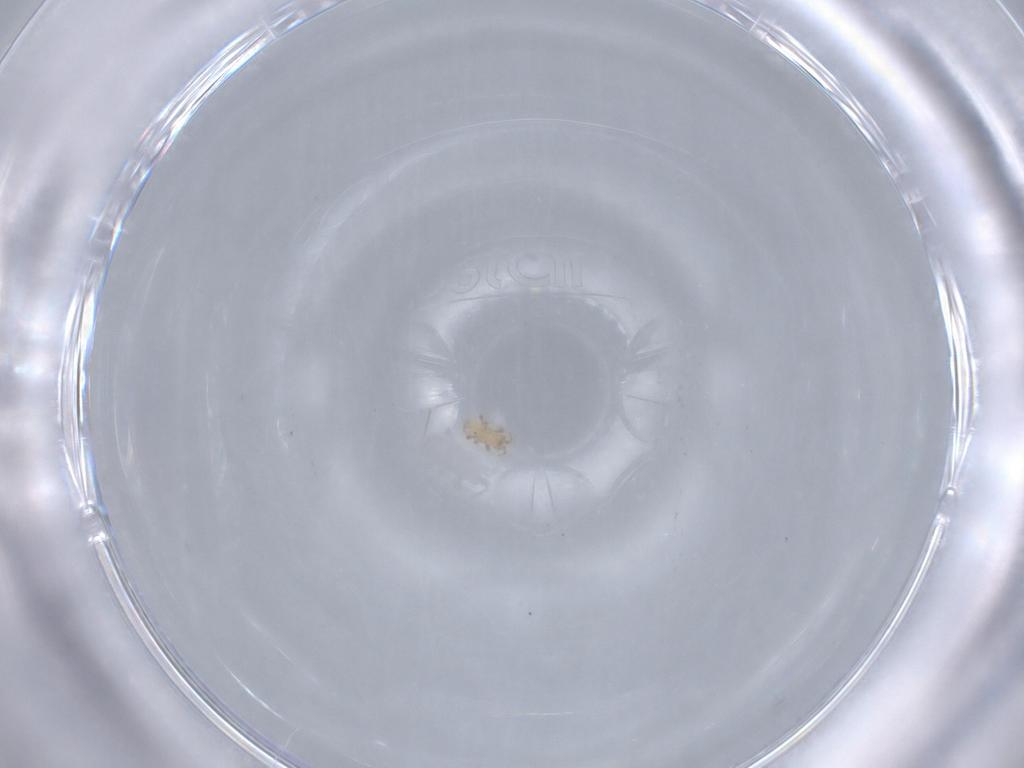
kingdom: Animalia
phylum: Arthropoda
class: Arachnida
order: Mesostigmata
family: Ascidae
